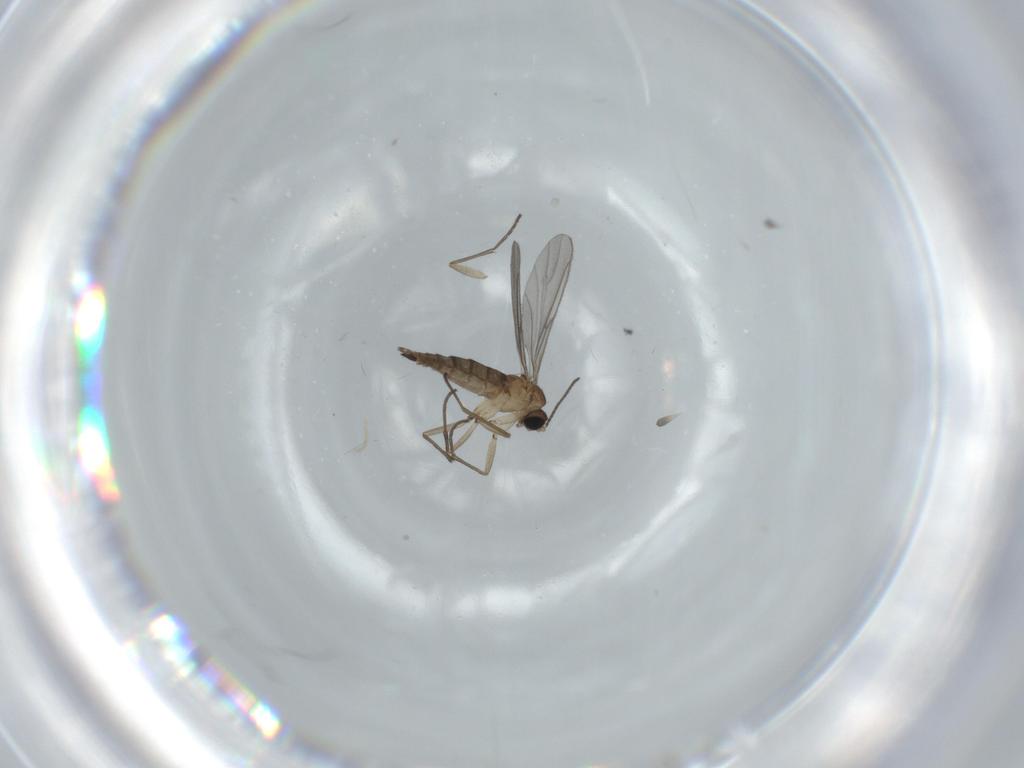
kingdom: Animalia
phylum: Arthropoda
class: Insecta
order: Diptera
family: Sciaridae
